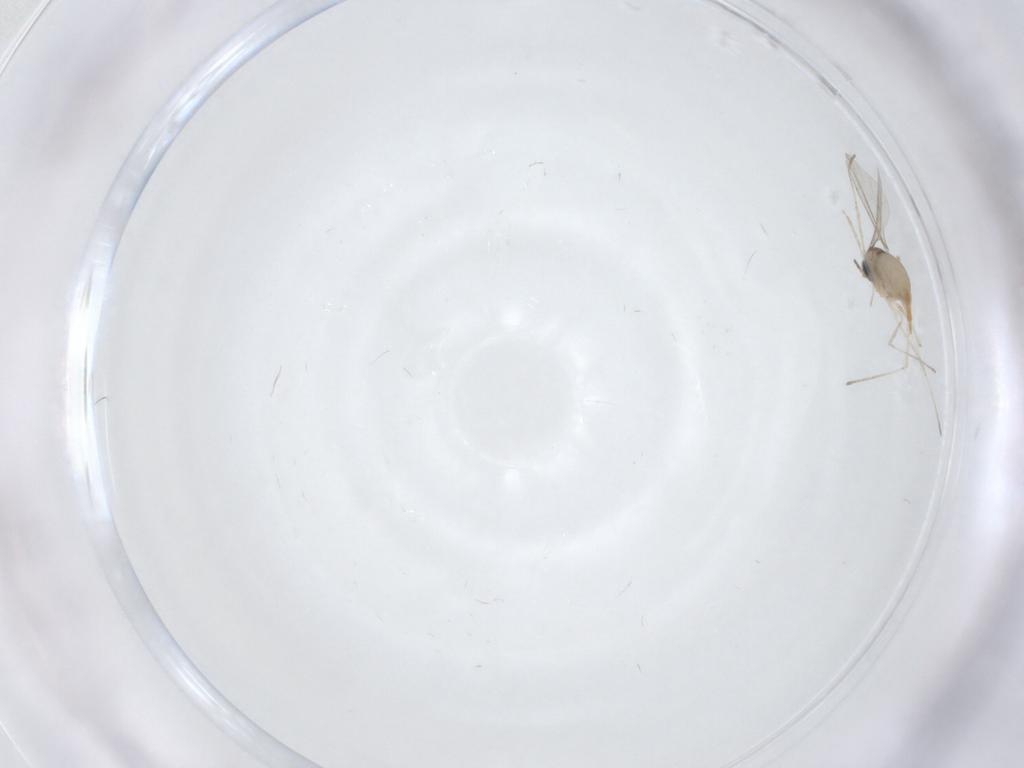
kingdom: Animalia
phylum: Arthropoda
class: Insecta
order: Diptera
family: Cecidomyiidae
